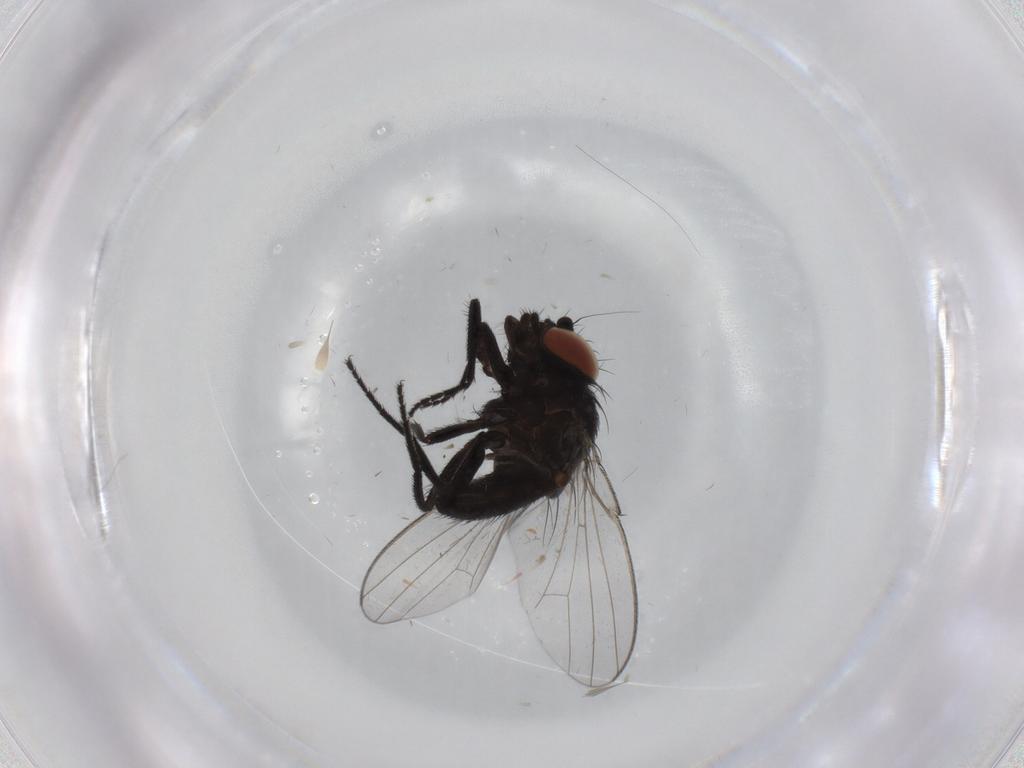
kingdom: Animalia
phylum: Arthropoda
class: Insecta
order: Diptera
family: Milichiidae
